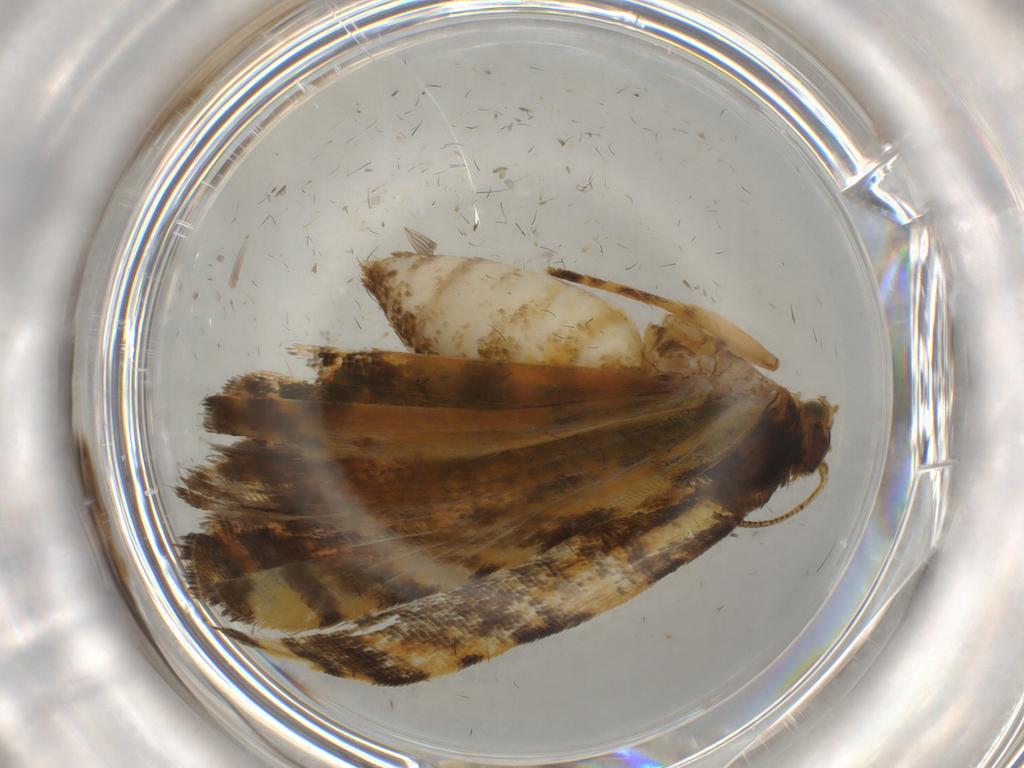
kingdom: Animalia
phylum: Arthropoda
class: Insecta
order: Lepidoptera
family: Tortricidae
